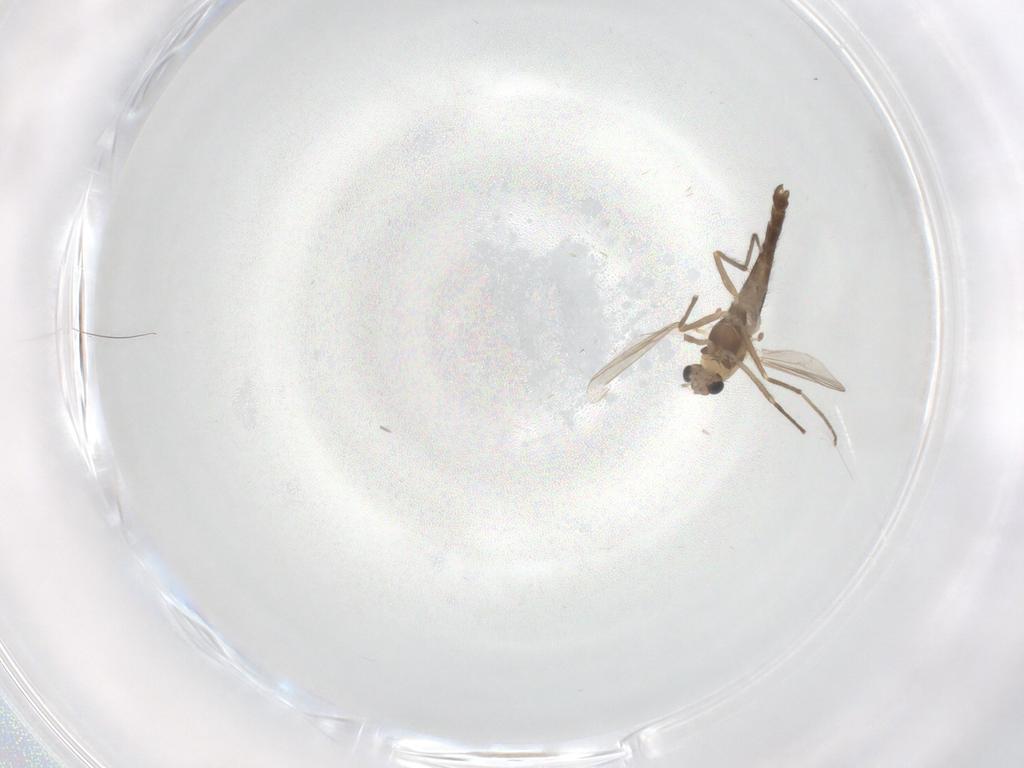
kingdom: Animalia
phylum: Arthropoda
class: Insecta
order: Diptera
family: Chironomidae
